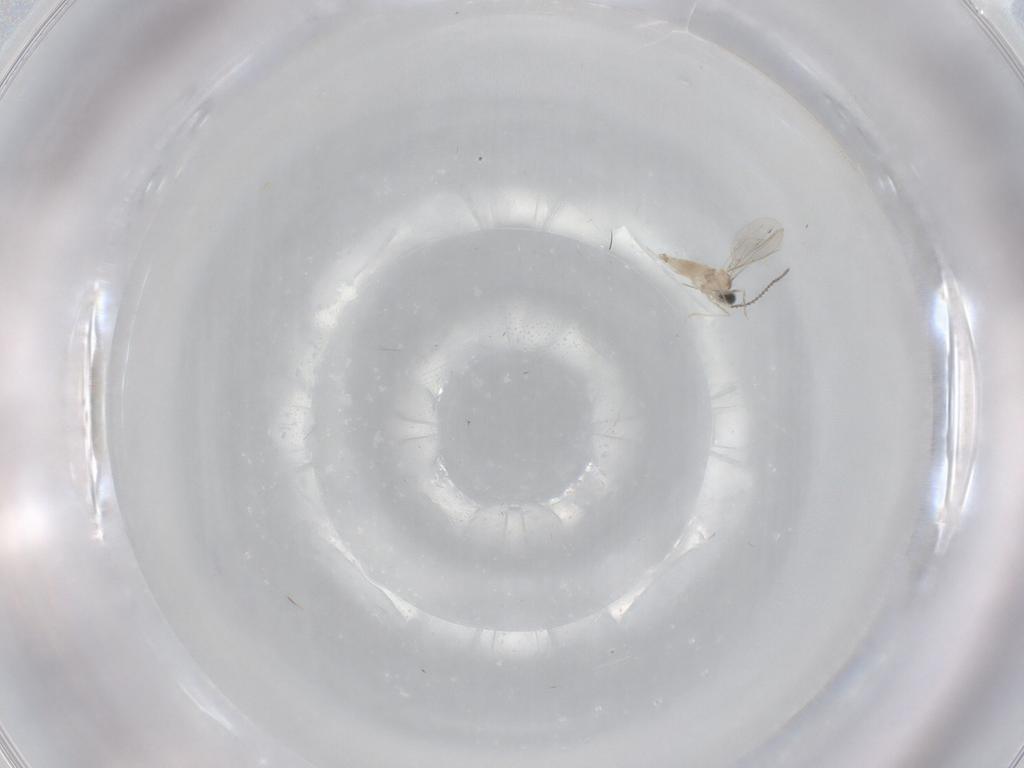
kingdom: Animalia
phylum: Arthropoda
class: Insecta
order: Diptera
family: Cecidomyiidae
